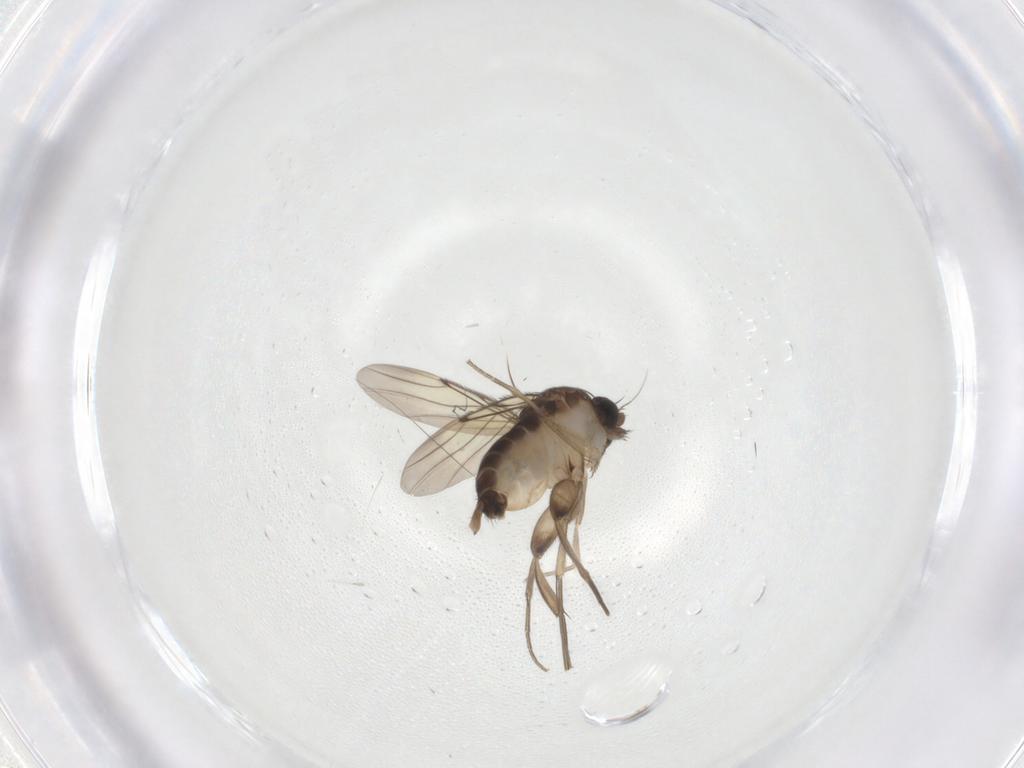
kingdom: Animalia
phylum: Arthropoda
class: Insecta
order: Diptera
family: Phoridae
